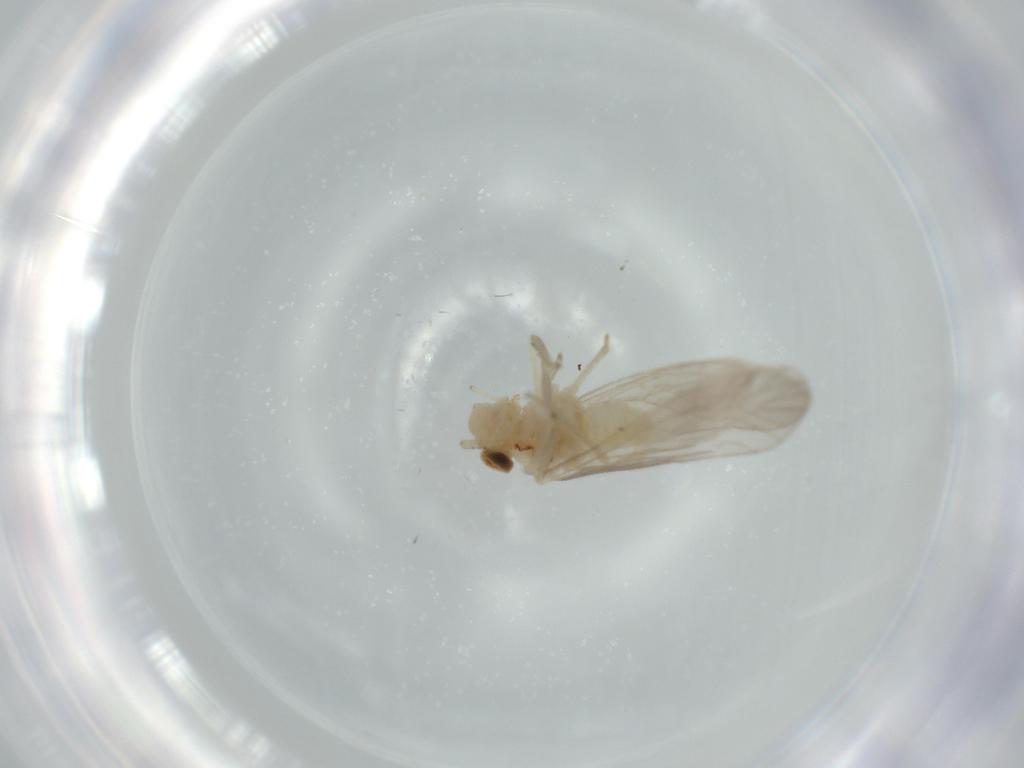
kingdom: Animalia
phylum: Arthropoda
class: Insecta
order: Psocodea
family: Caeciliusidae
